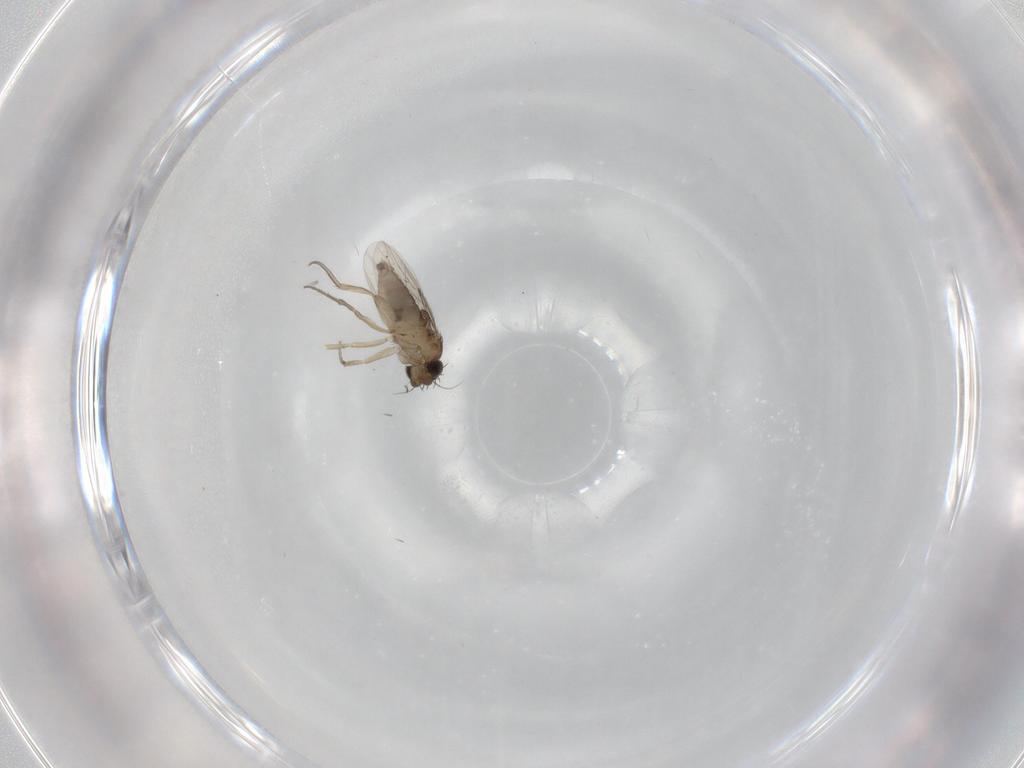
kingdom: Animalia
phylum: Arthropoda
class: Insecta
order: Diptera
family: Phoridae
